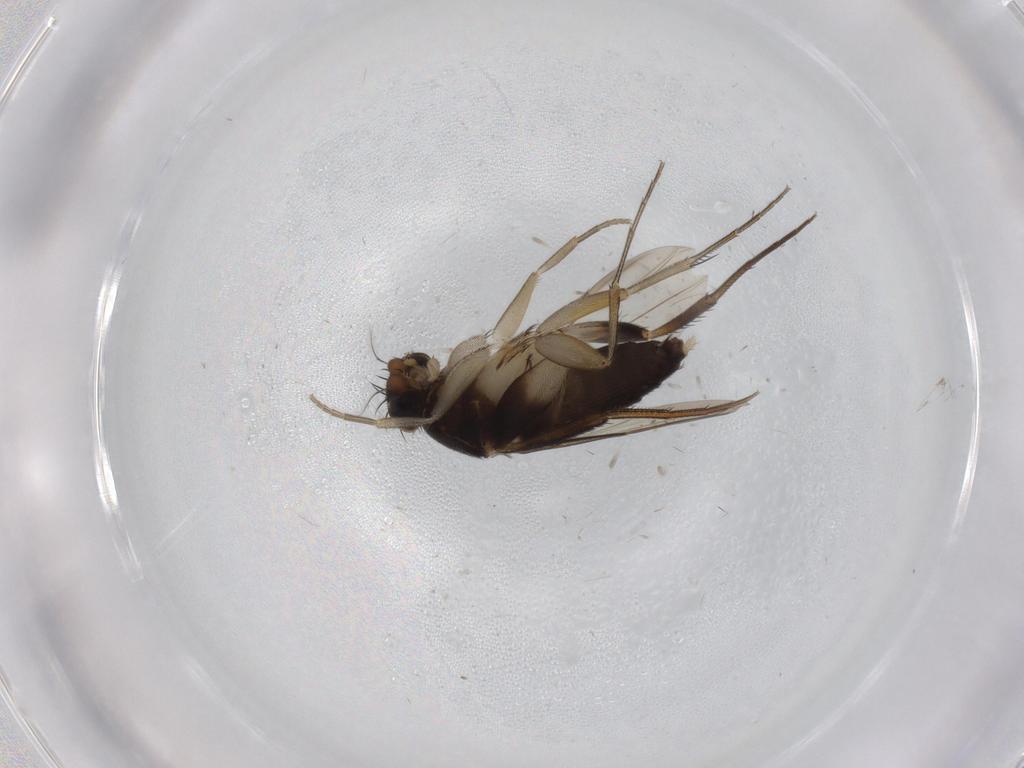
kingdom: Animalia
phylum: Arthropoda
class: Insecta
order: Diptera
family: Phoridae
